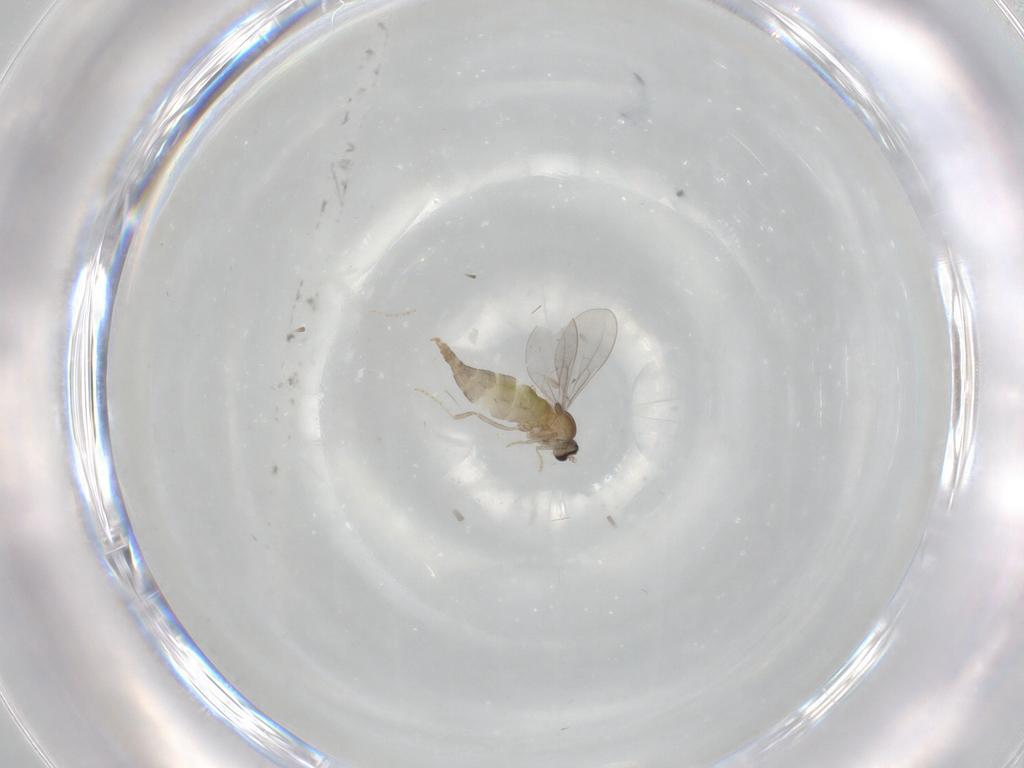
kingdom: Animalia
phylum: Arthropoda
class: Insecta
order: Diptera
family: Cecidomyiidae
